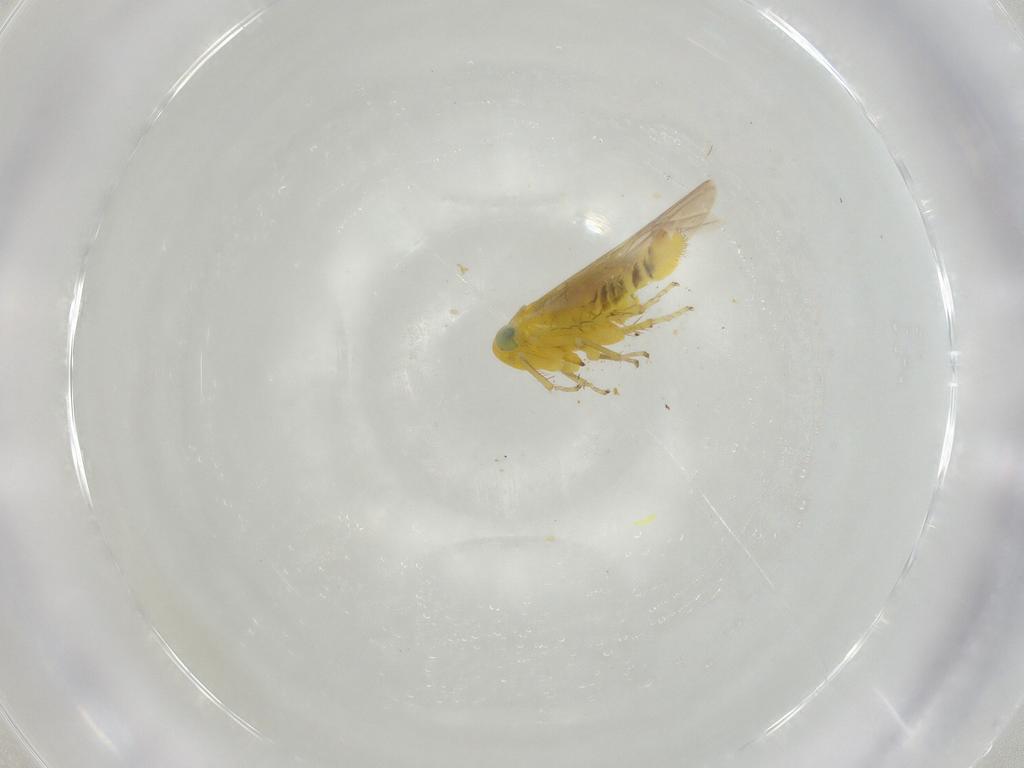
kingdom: Animalia
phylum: Arthropoda
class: Insecta
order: Hemiptera
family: Cicadellidae
